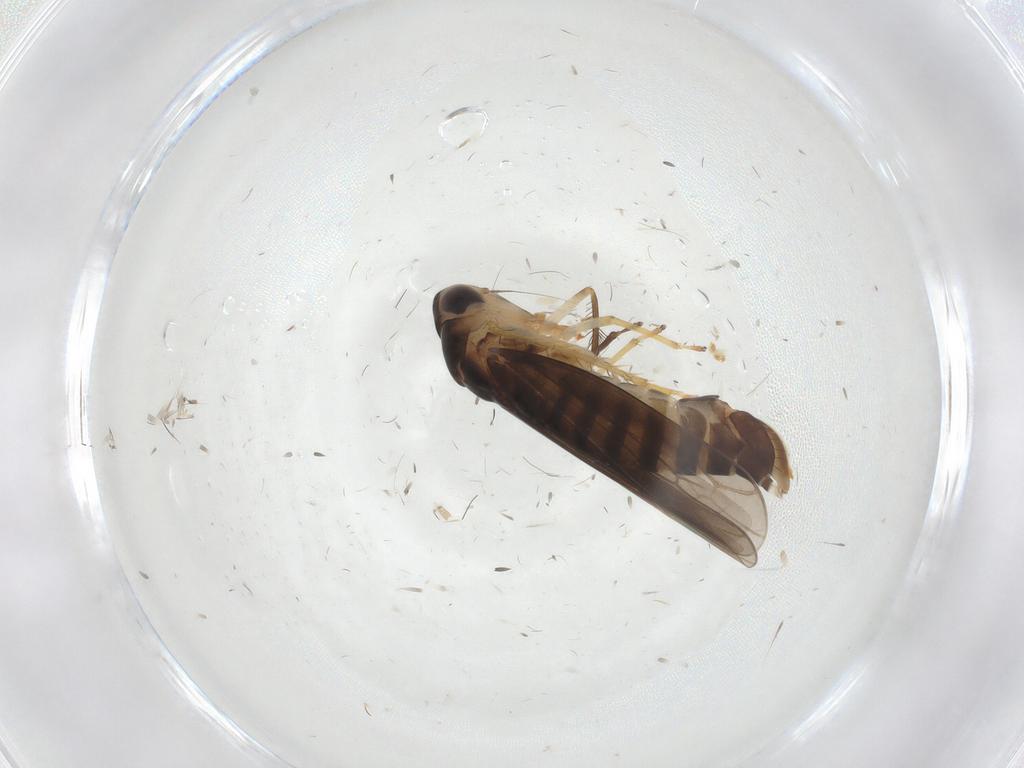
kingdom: Animalia
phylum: Arthropoda
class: Insecta
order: Hemiptera
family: Cicadellidae
